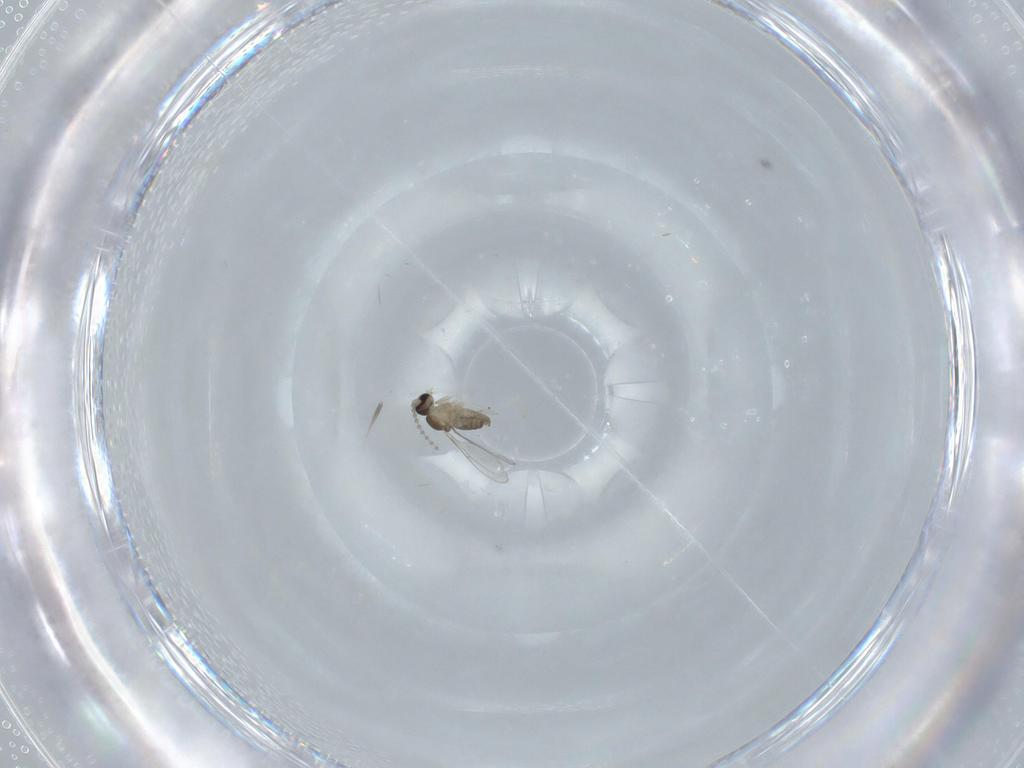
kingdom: Animalia
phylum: Arthropoda
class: Insecta
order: Diptera
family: Cecidomyiidae
